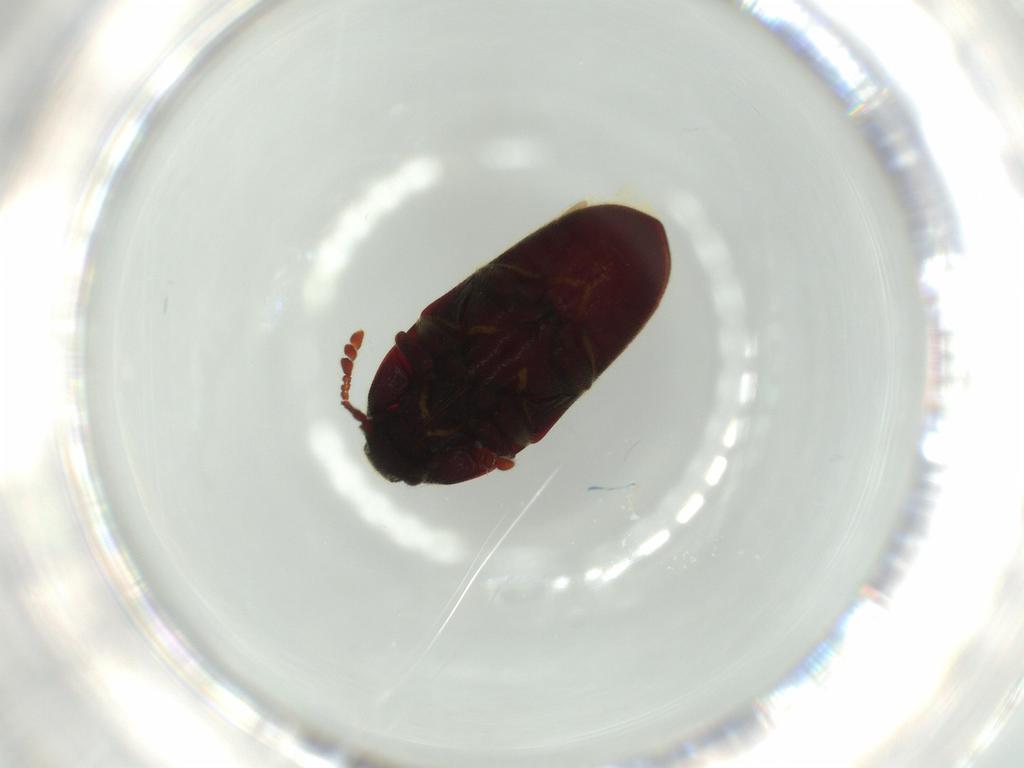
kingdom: Animalia
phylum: Arthropoda
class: Insecta
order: Coleoptera
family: Throscidae
